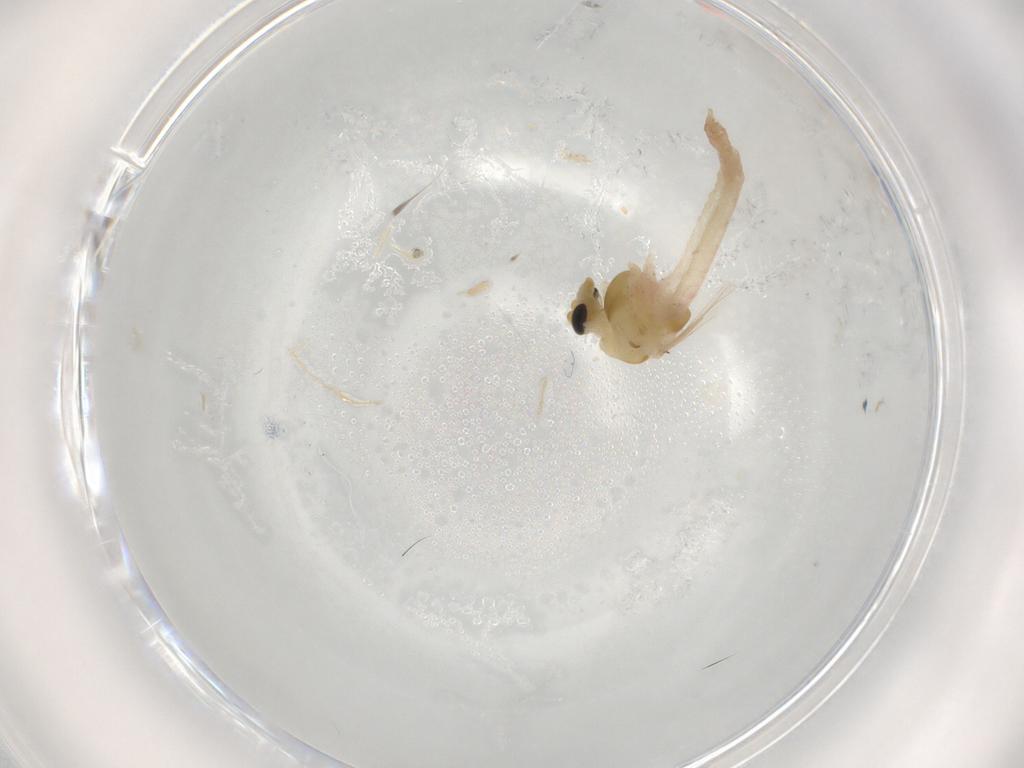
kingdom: Animalia
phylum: Arthropoda
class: Insecta
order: Diptera
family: Chironomidae
